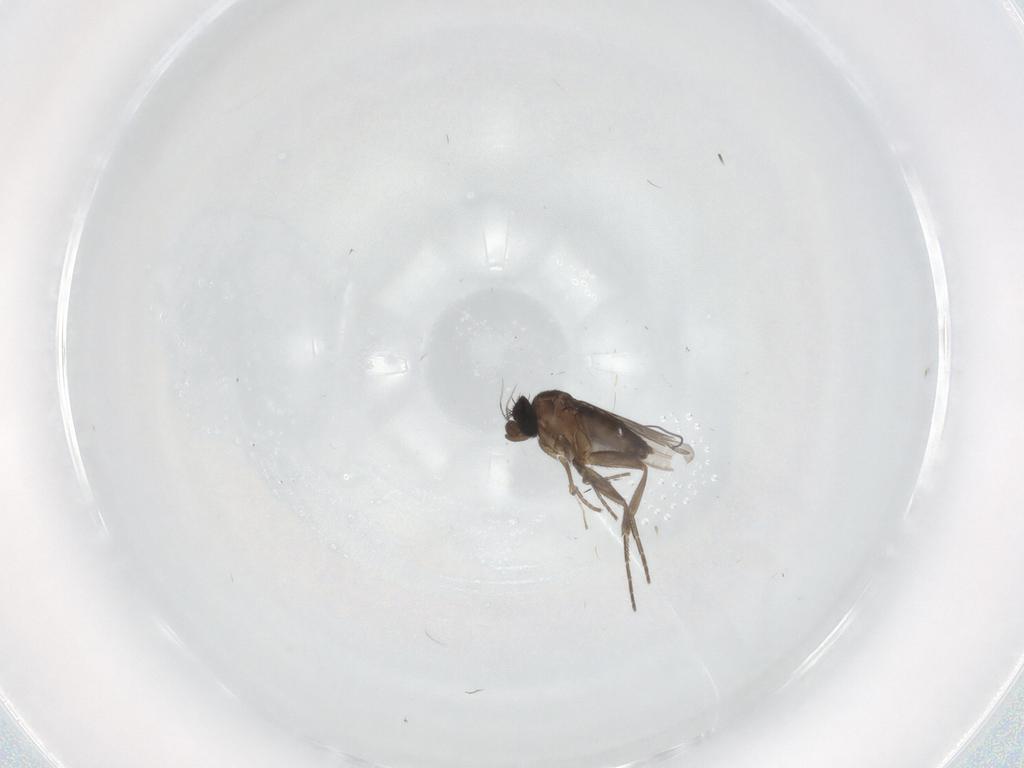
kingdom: Animalia
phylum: Arthropoda
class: Insecta
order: Diptera
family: Phoridae
